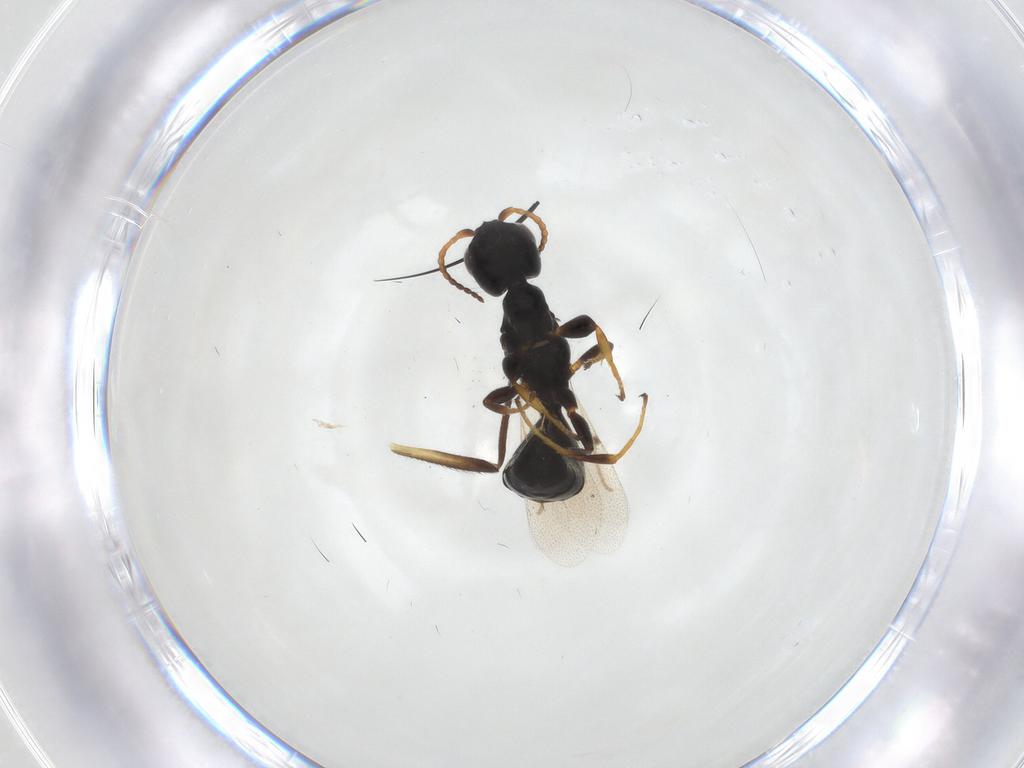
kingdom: Animalia
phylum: Arthropoda
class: Insecta
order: Hymenoptera
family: Bethylidae
